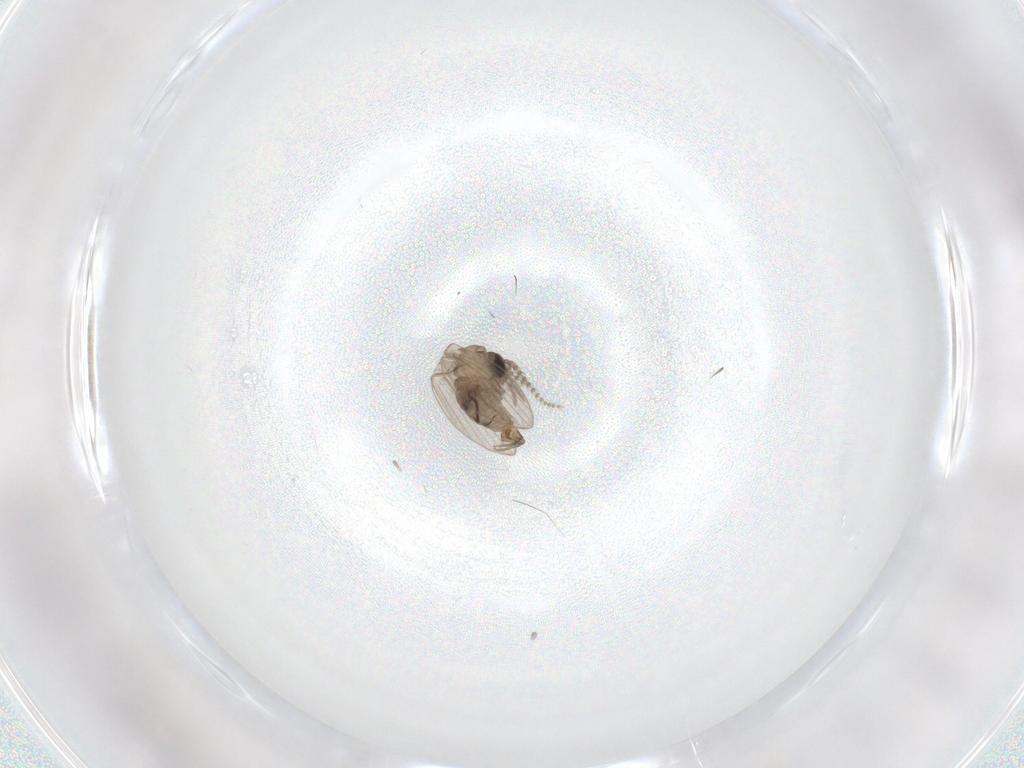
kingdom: Animalia
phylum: Arthropoda
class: Insecta
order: Diptera
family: Psychodidae
